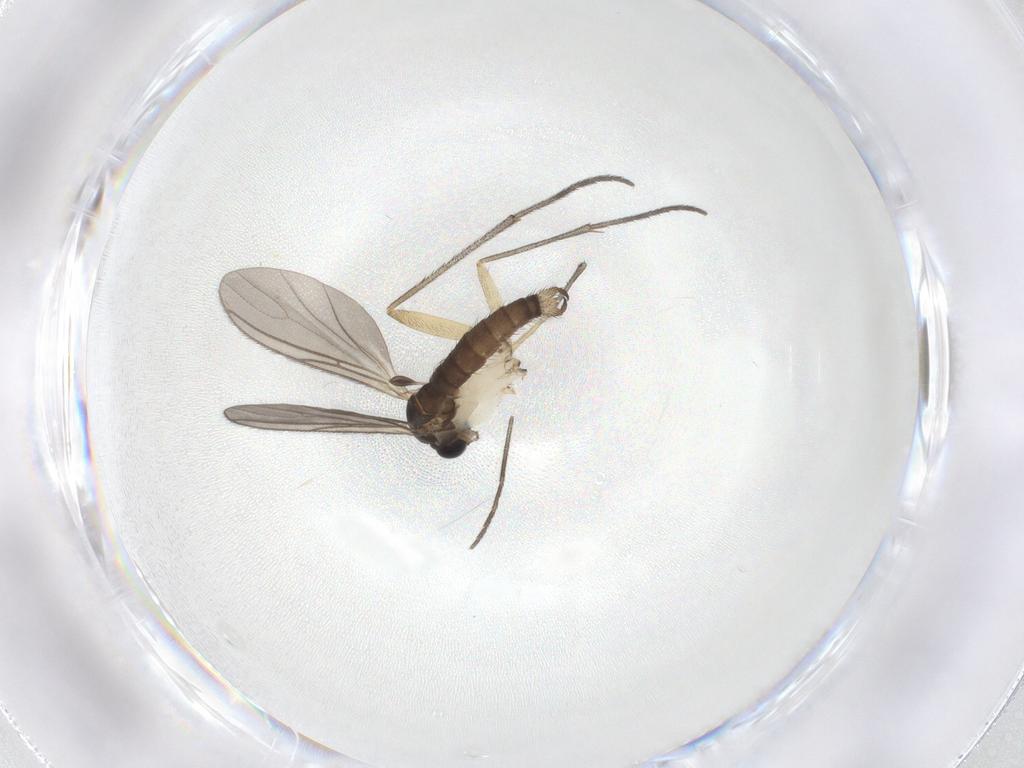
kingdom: Animalia
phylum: Arthropoda
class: Insecta
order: Diptera
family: Sciaridae
